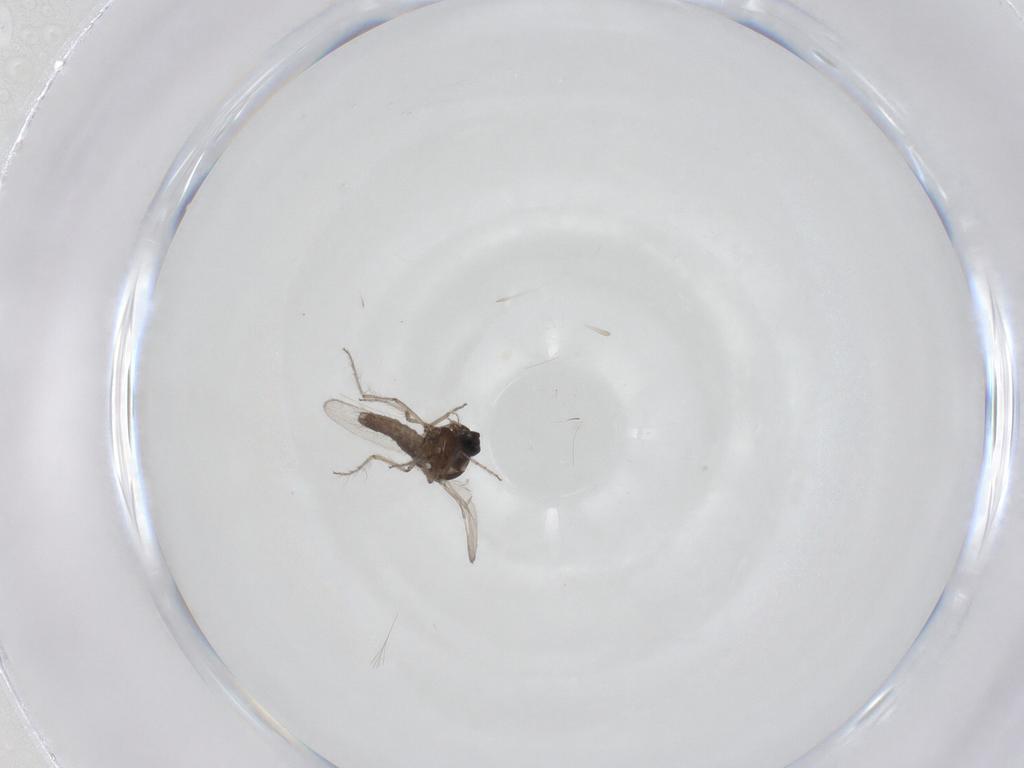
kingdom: Animalia
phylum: Arthropoda
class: Insecta
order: Diptera
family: Ceratopogonidae
